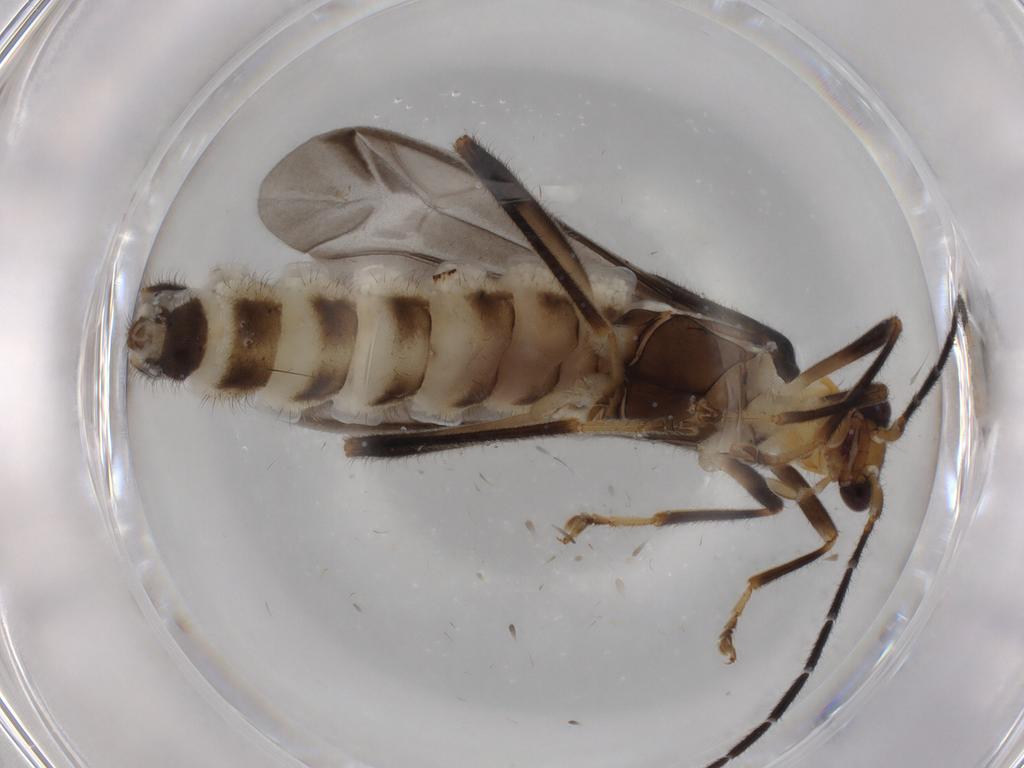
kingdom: Animalia
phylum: Arthropoda
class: Insecta
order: Coleoptera
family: Cantharidae
